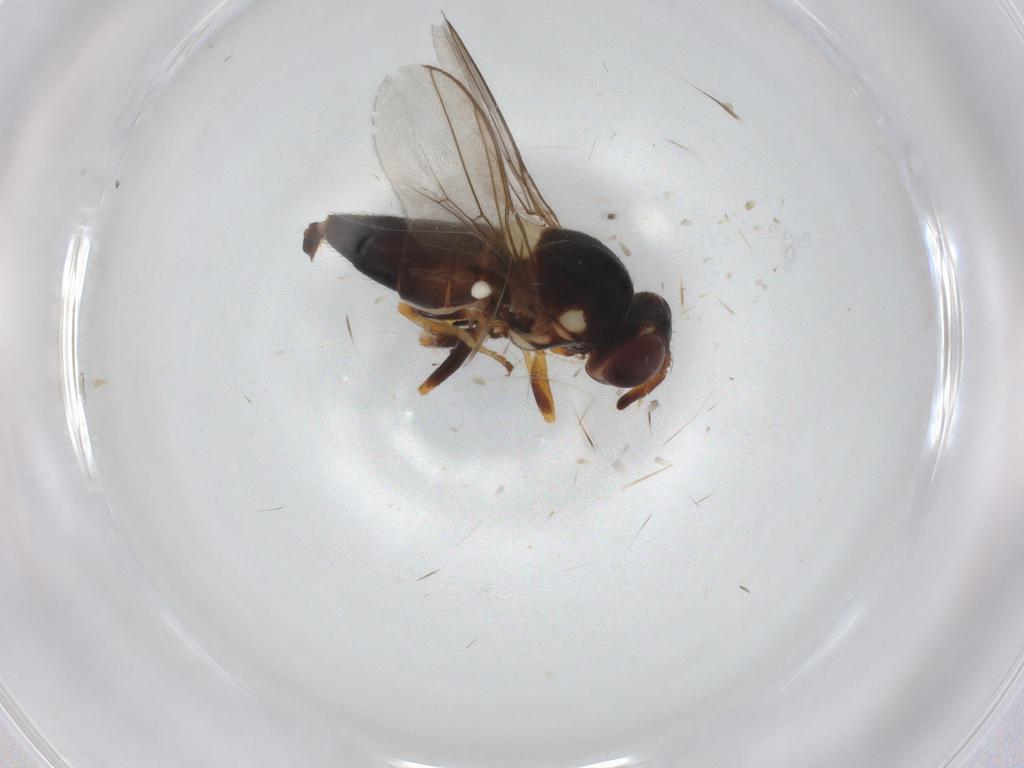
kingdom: Animalia
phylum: Arthropoda
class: Insecta
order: Diptera
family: Chloropidae
